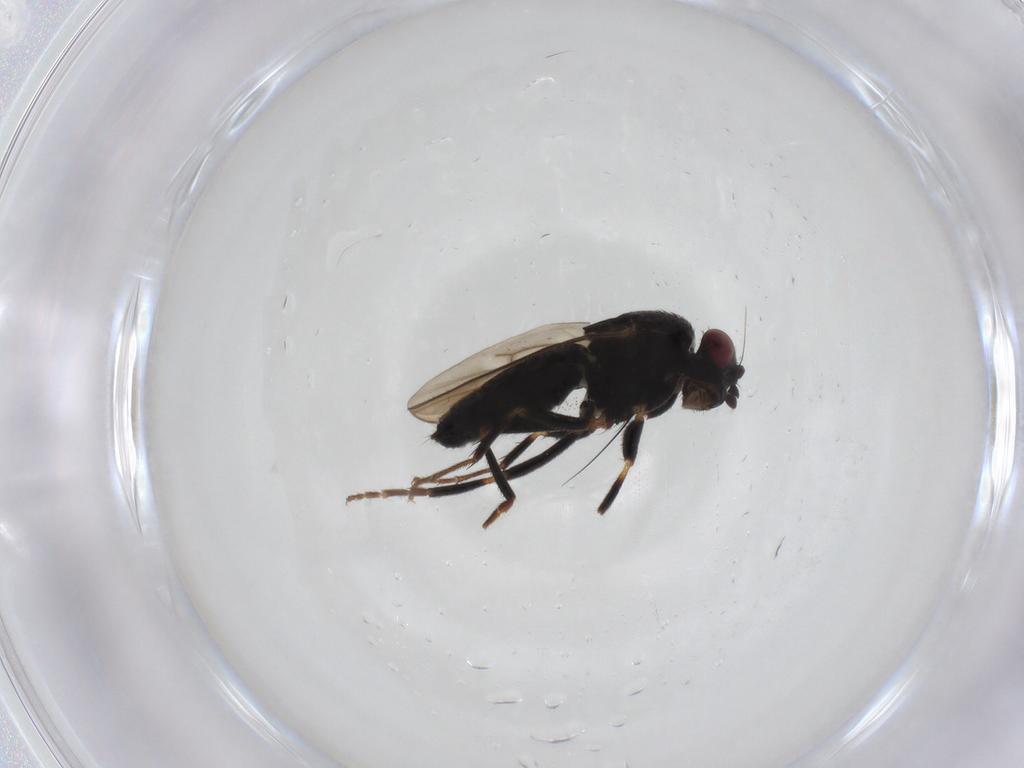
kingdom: Animalia
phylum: Arthropoda
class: Insecta
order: Diptera
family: Sphaeroceridae
